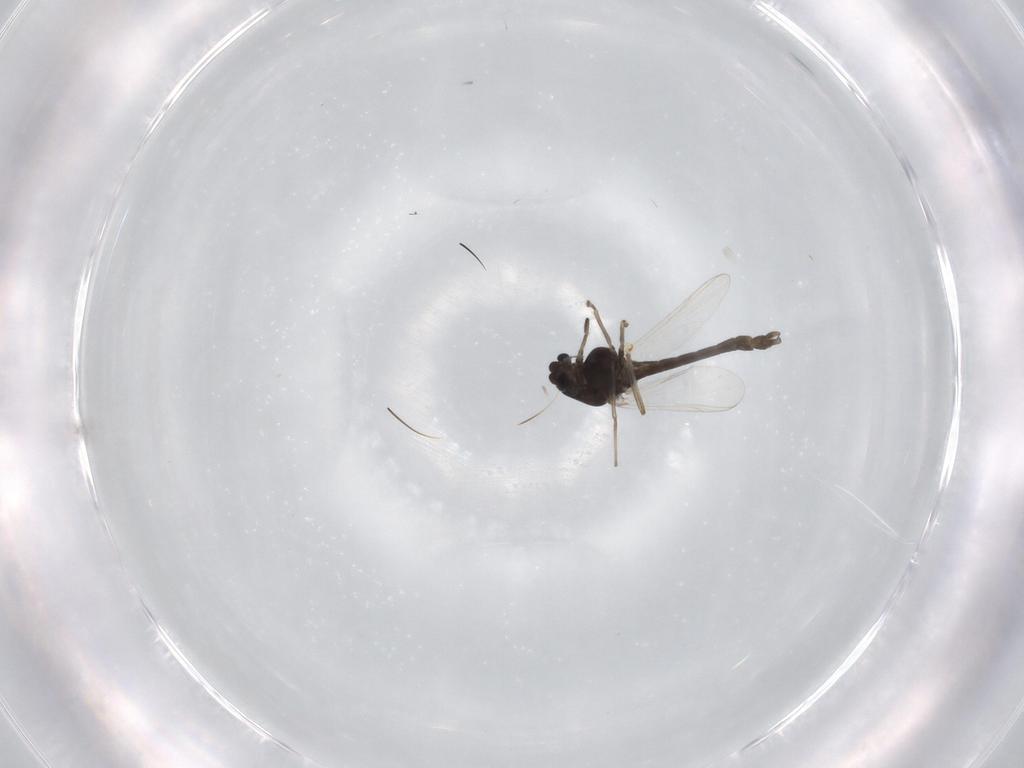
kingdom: Animalia
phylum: Arthropoda
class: Insecta
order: Diptera
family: Chironomidae
